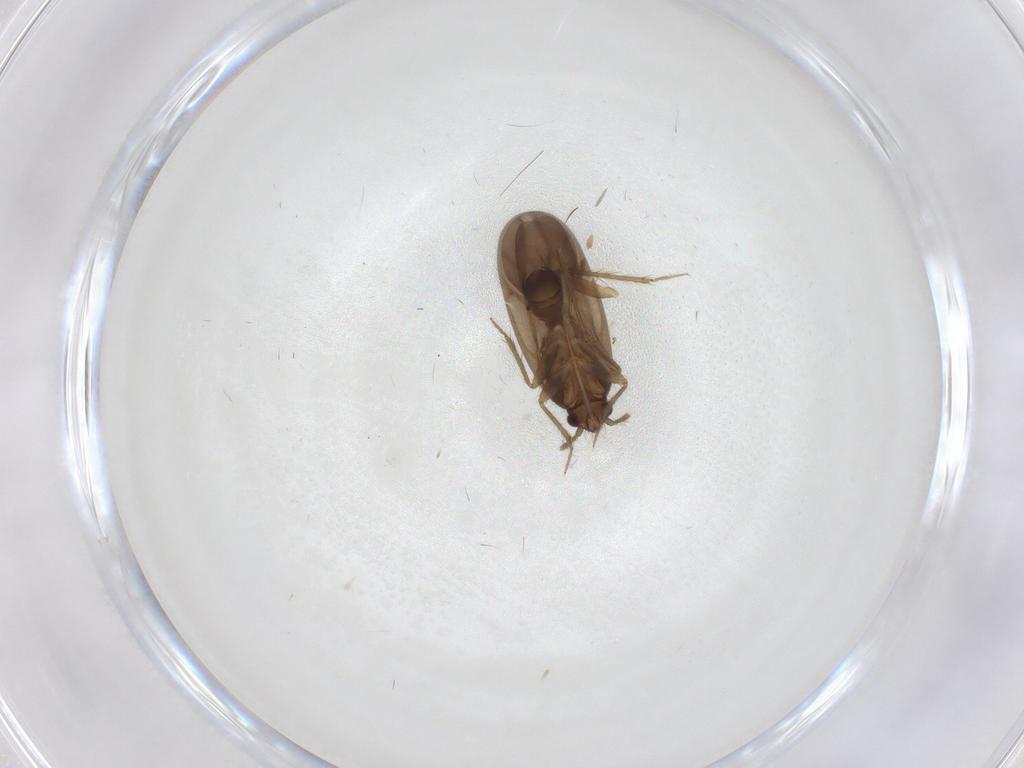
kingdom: Animalia
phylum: Arthropoda
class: Insecta
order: Hemiptera
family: Ceratocombidae
